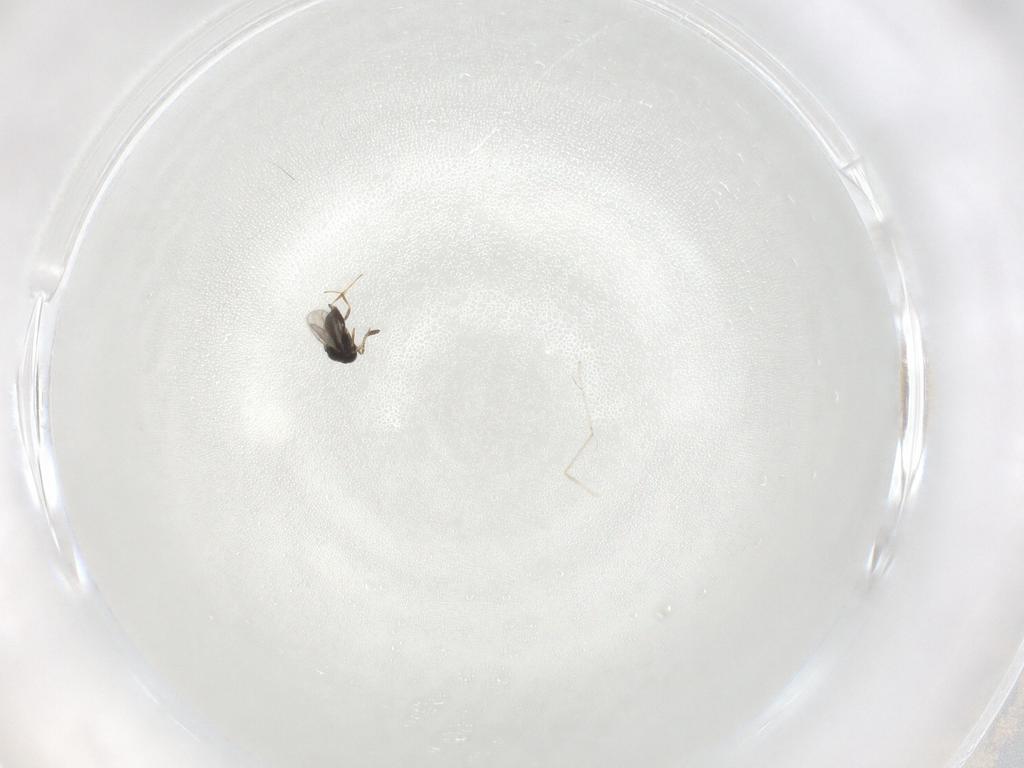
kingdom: Animalia
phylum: Arthropoda
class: Insecta
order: Hymenoptera
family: Scelionidae
